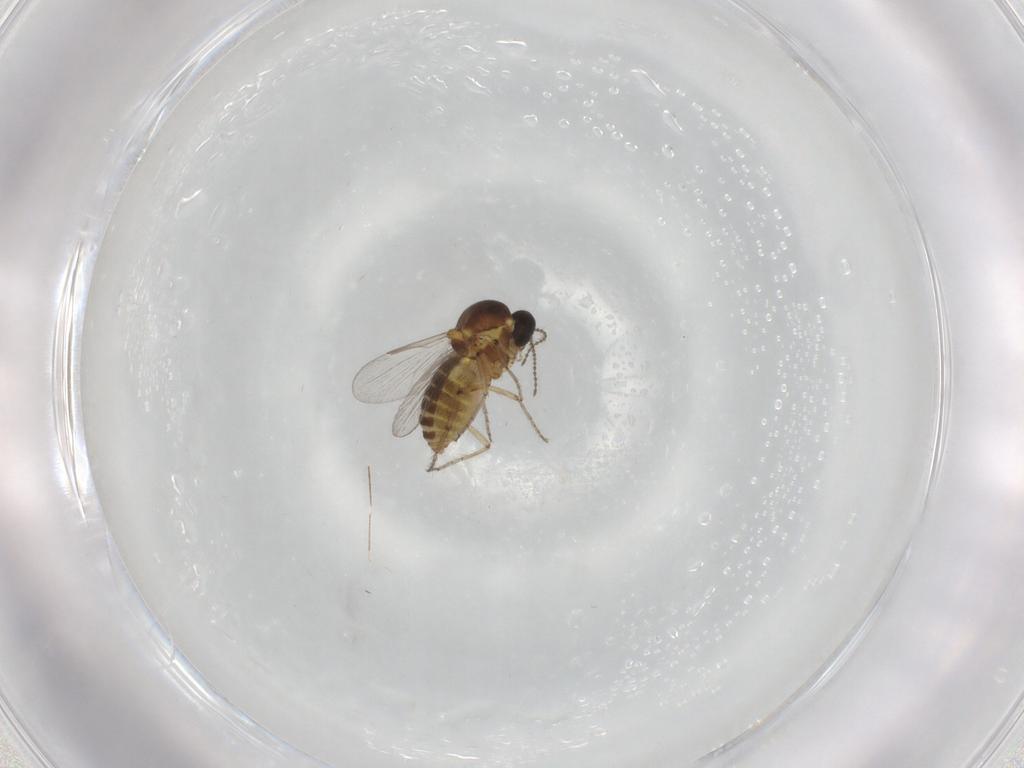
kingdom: Animalia
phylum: Arthropoda
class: Insecta
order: Diptera
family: Ceratopogonidae
